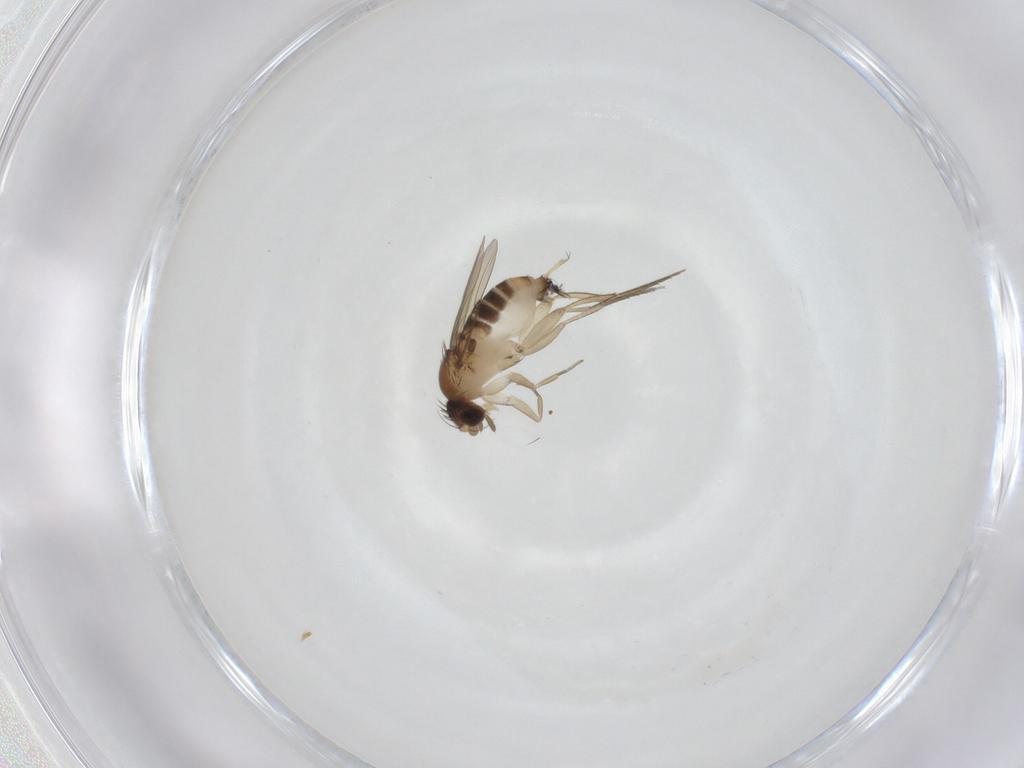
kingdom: Animalia
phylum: Arthropoda
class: Insecta
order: Diptera
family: Phoridae
